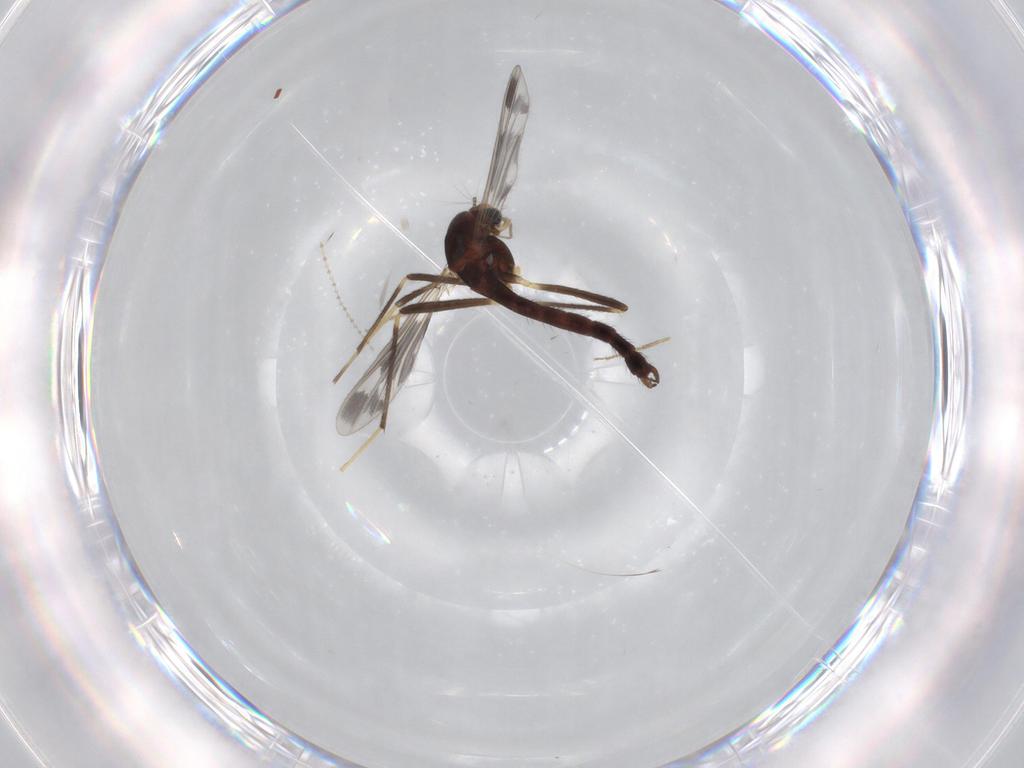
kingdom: Animalia
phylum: Arthropoda
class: Insecta
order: Diptera
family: Chironomidae
